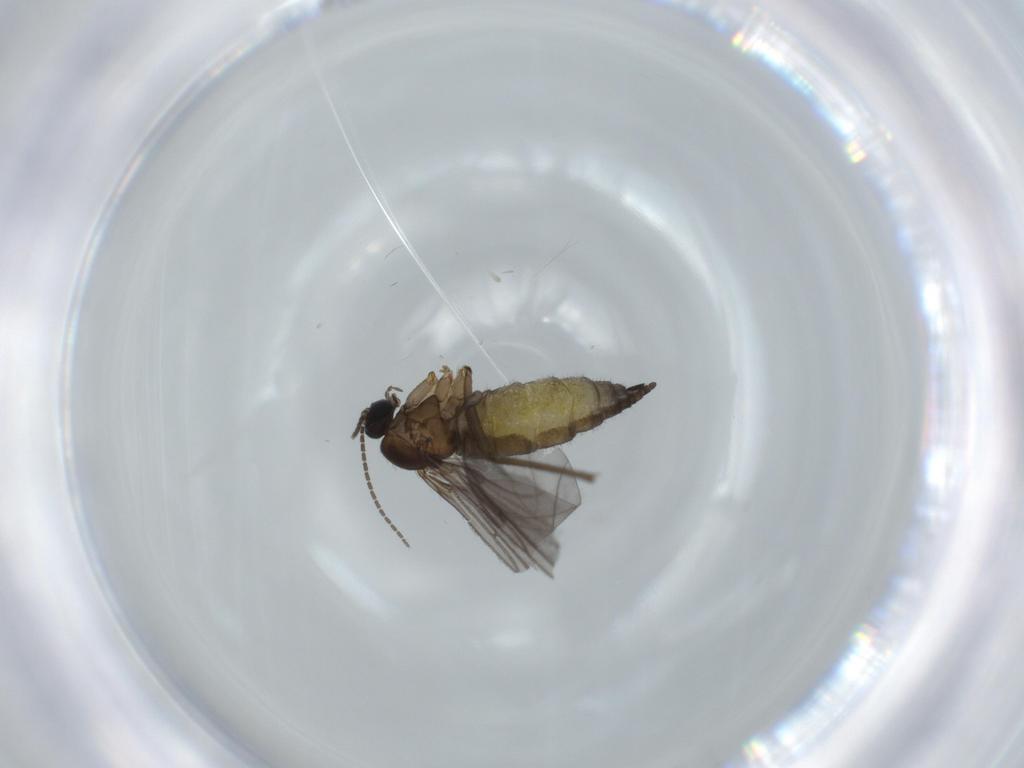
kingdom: Animalia
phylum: Arthropoda
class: Insecta
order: Diptera
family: Sciaridae
